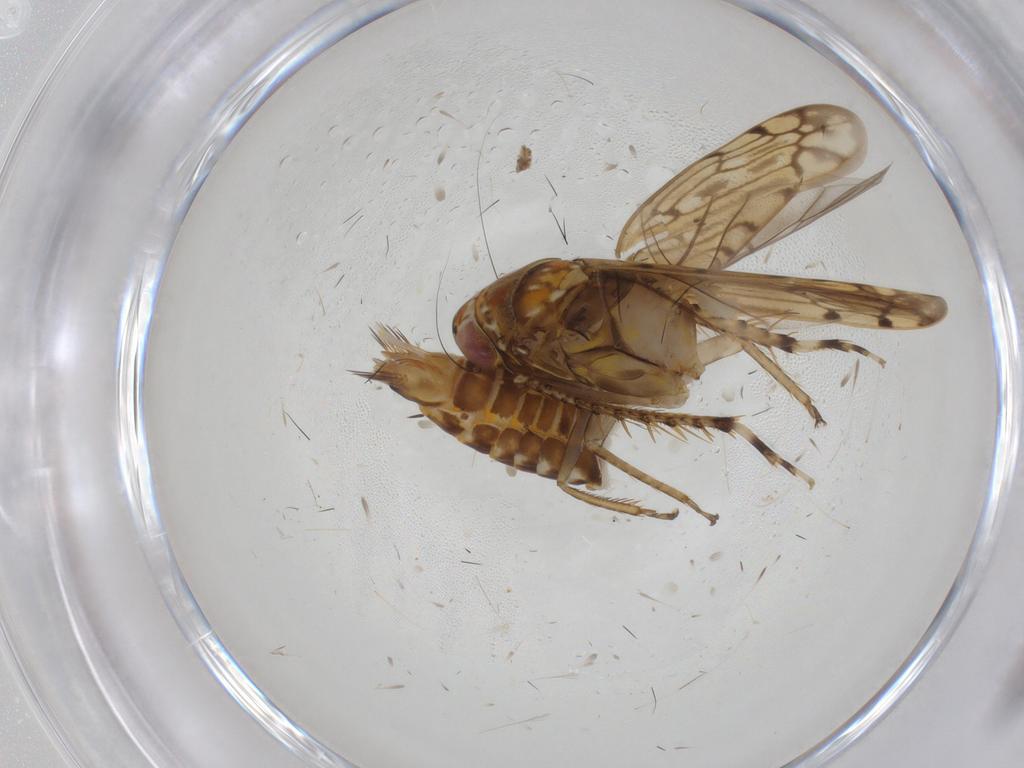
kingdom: Animalia
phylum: Arthropoda
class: Insecta
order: Hemiptera
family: Cicadellidae
